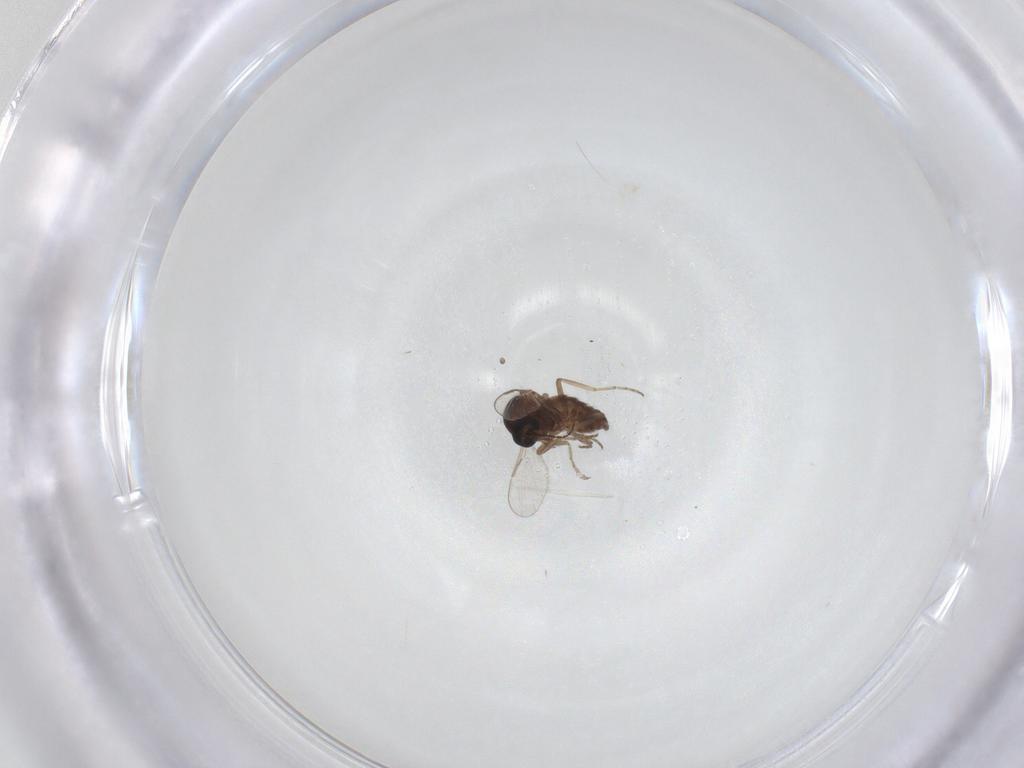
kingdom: Animalia
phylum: Arthropoda
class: Insecta
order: Diptera
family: Ceratopogonidae
